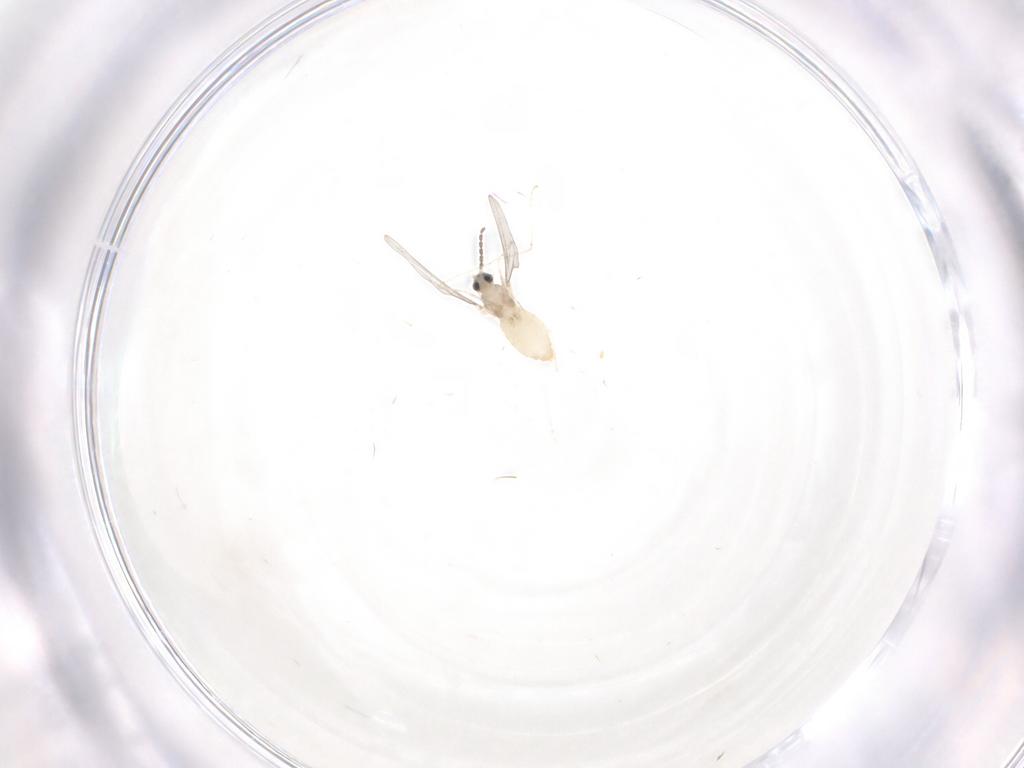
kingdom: Animalia
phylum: Arthropoda
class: Insecta
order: Diptera
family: Cecidomyiidae
